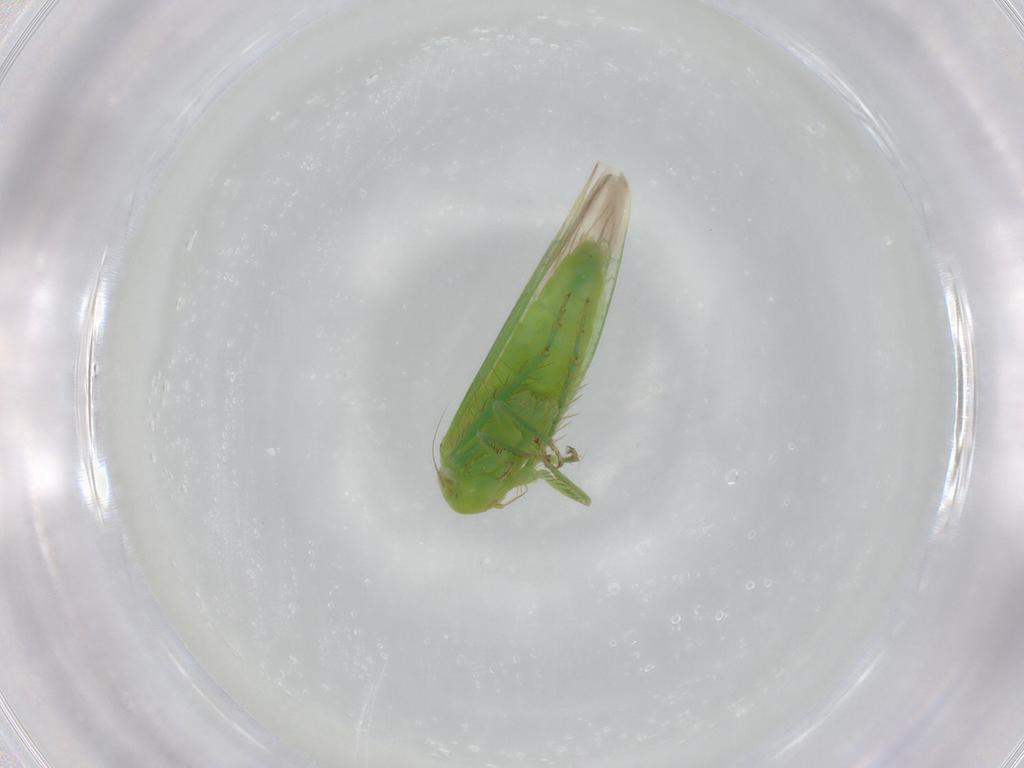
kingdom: Animalia
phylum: Arthropoda
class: Insecta
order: Hemiptera
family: Cicadellidae
